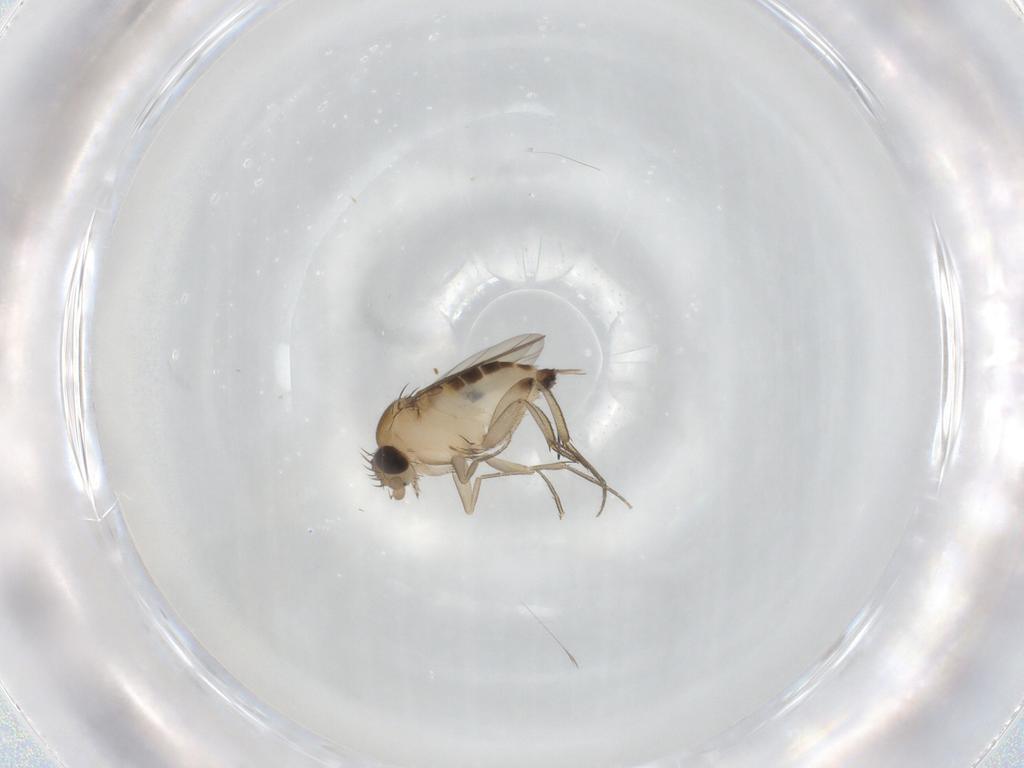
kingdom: Animalia
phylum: Arthropoda
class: Insecta
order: Diptera
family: Phoridae
